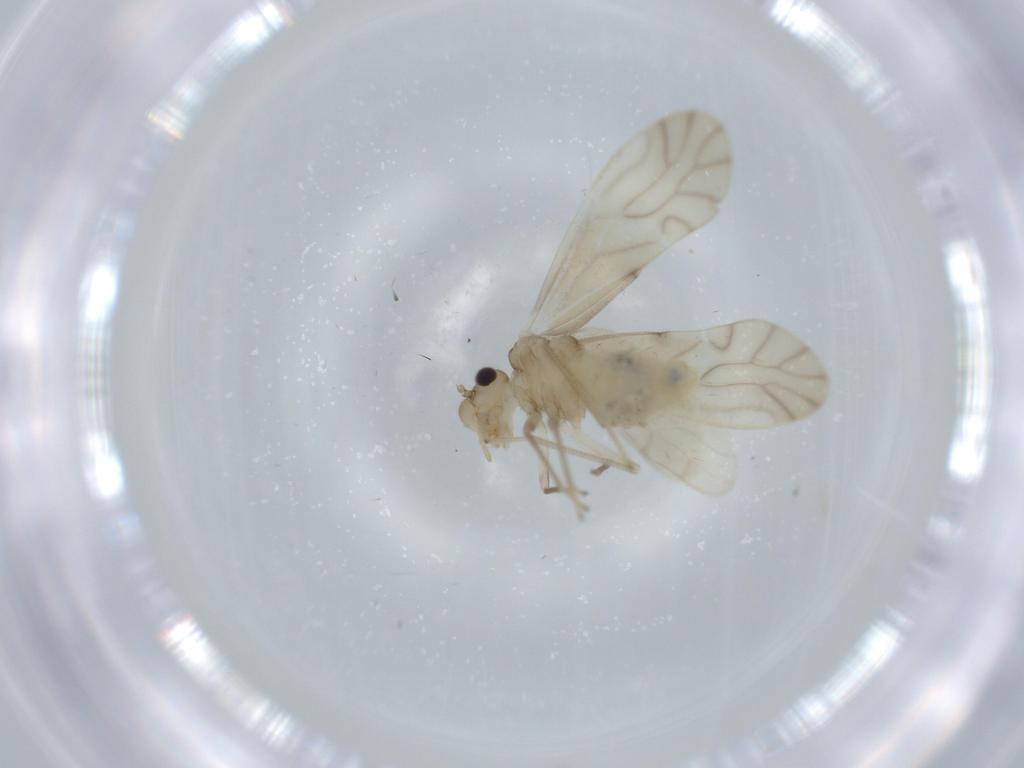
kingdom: Animalia
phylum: Arthropoda
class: Insecta
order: Psocodea
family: Caeciliusidae
